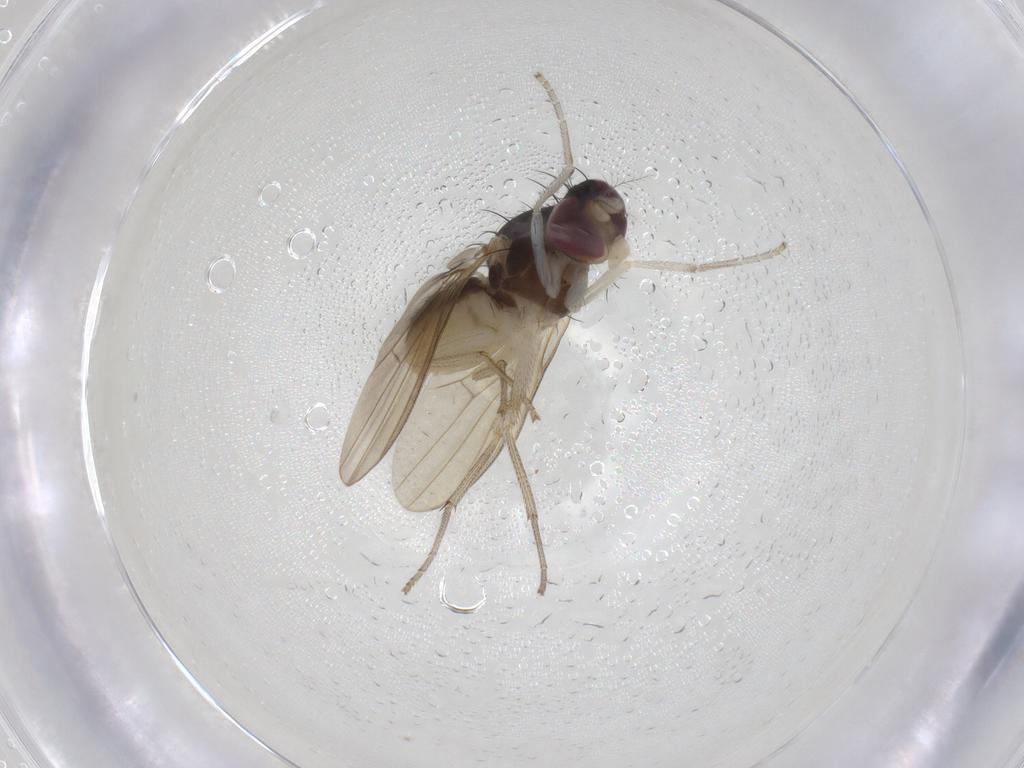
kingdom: Animalia
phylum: Arthropoda
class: Insecta
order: Diptera
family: Lauxaniidae
